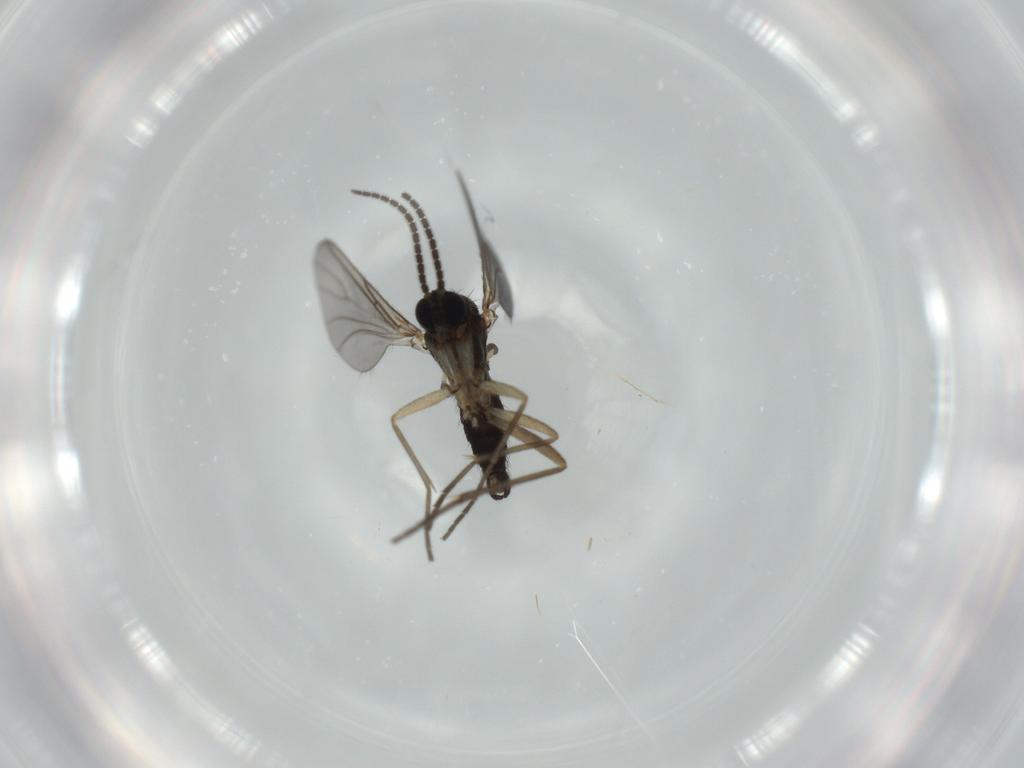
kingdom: Animalia
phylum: Arthropoda
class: Insecta
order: Diptera
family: Sciaridae
